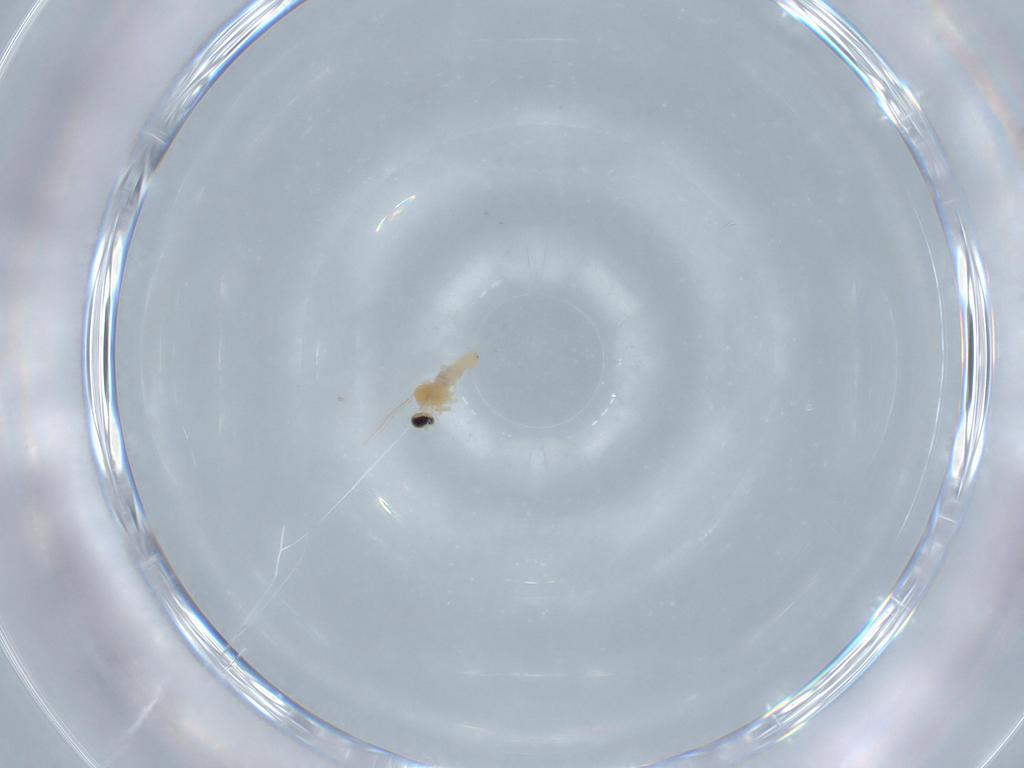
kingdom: Animalia
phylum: Arthropoda
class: Insecta
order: Diptera
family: Cecidomyiidae
